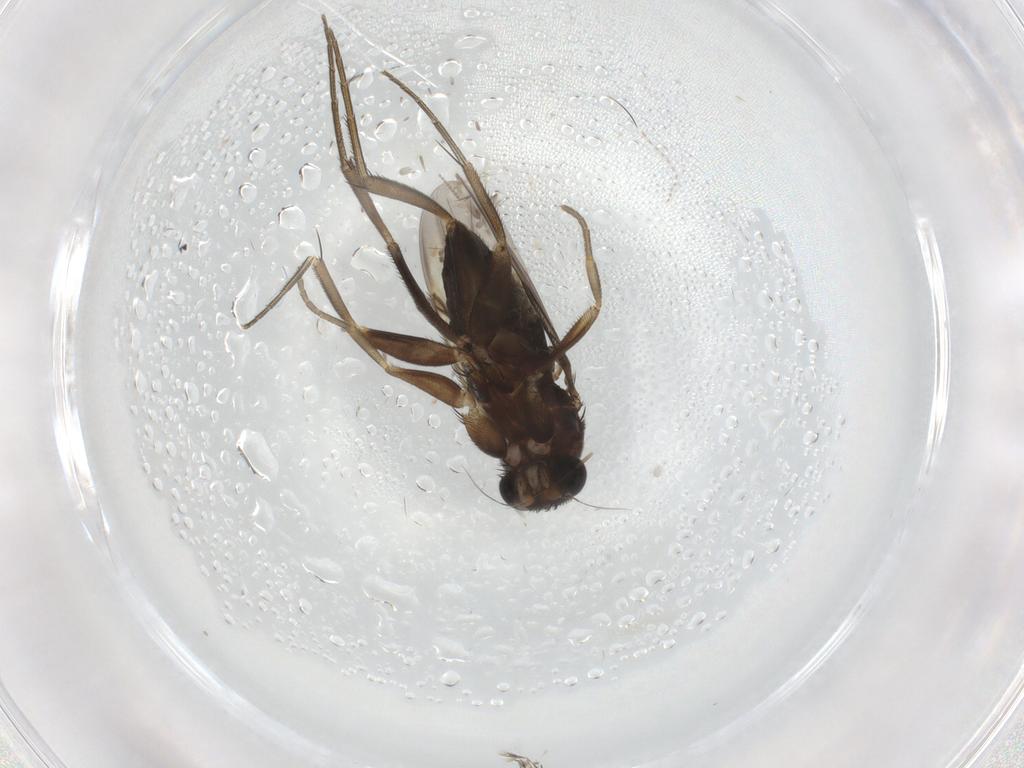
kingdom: Animalia
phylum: Arthropoda
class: Insecta
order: Diptera
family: Phoridae
